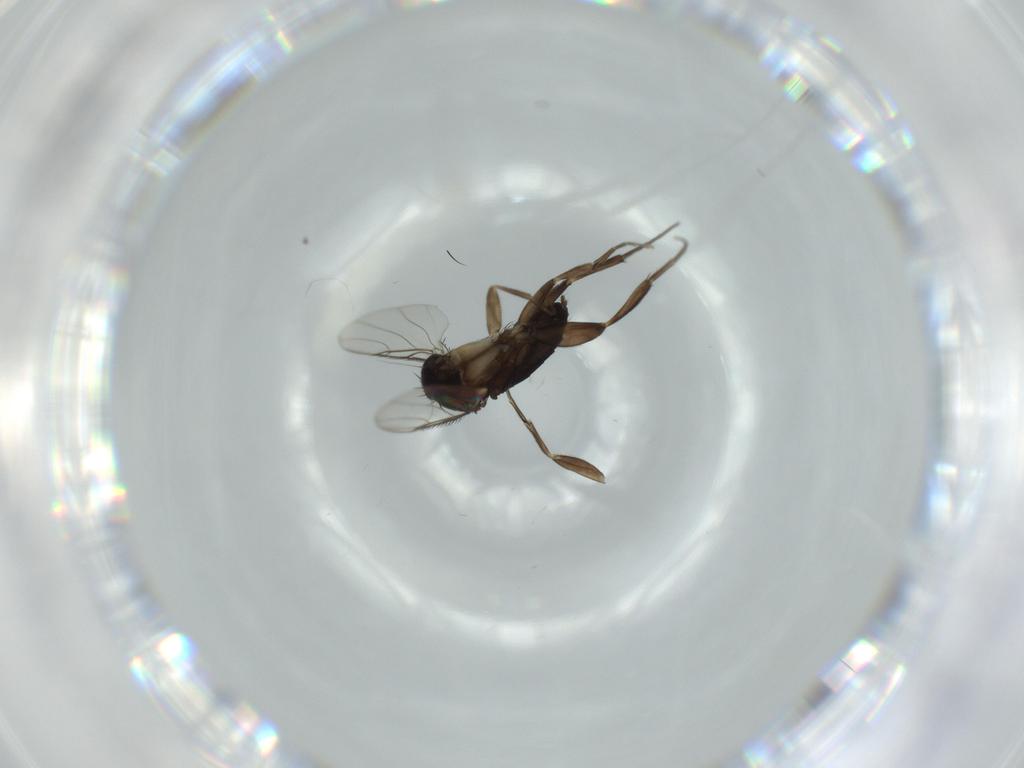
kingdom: Animalia
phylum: Arthropoda
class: Insecta
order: Diptera
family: Phoridae
